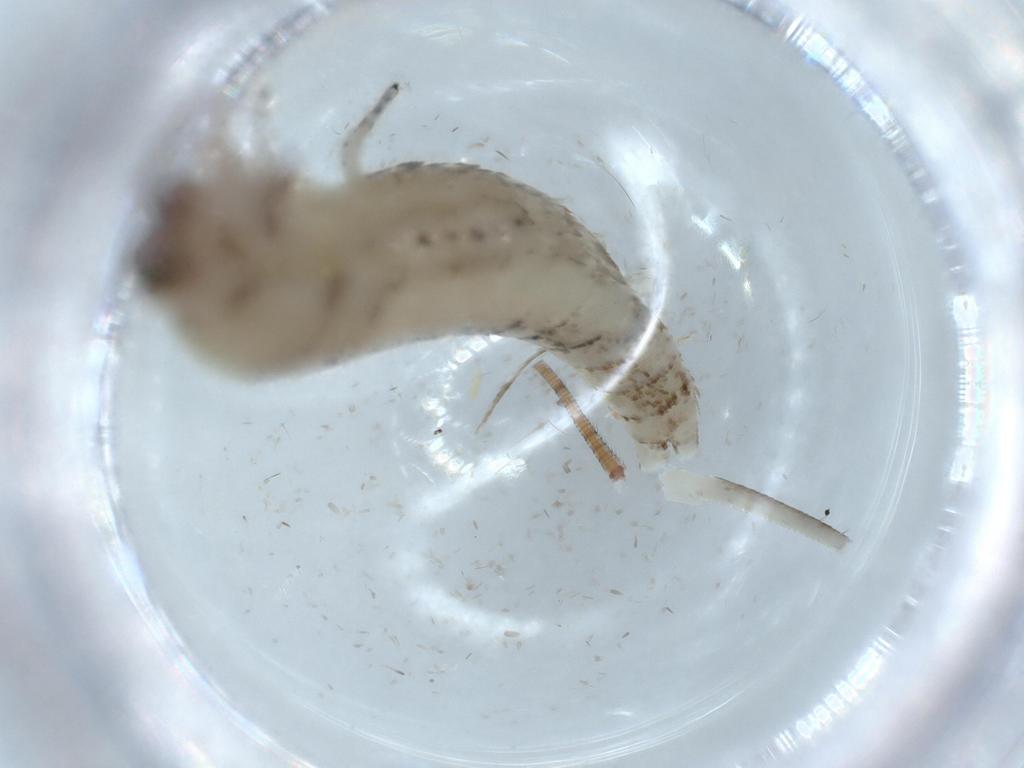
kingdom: Animalia
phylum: Arthropoda
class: Insecta
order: Archaeognatha
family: Machilidae
